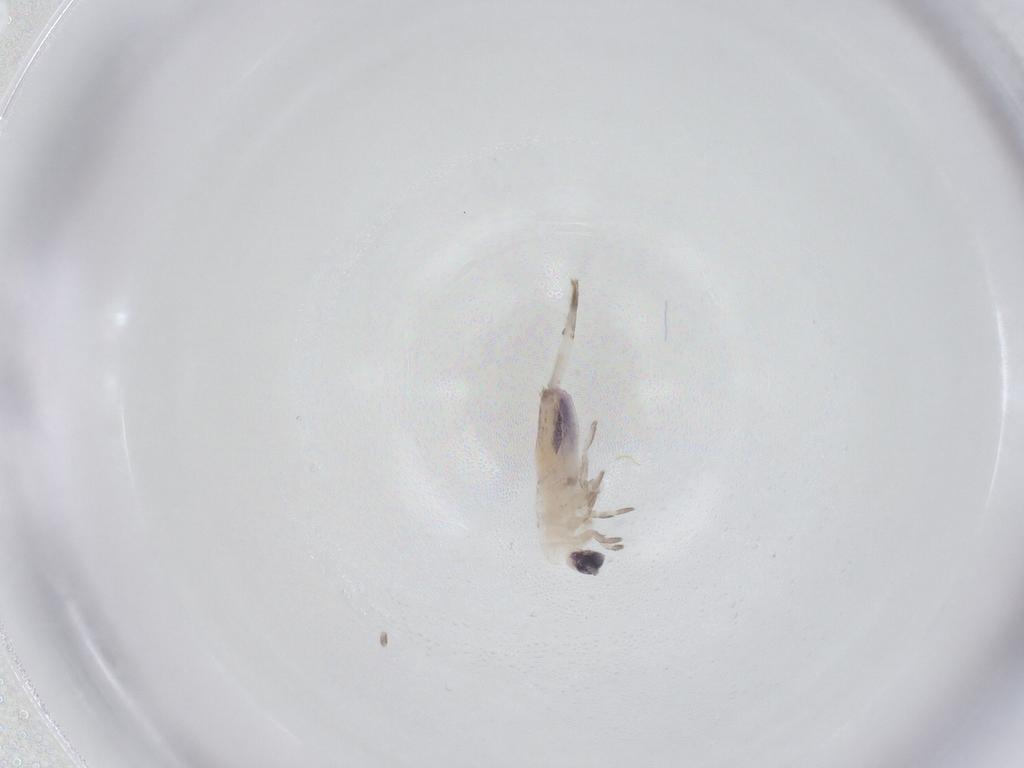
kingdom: Animalia
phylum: Arthropoda
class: Collembola
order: Entomobryomorpha
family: Entomobryidae
